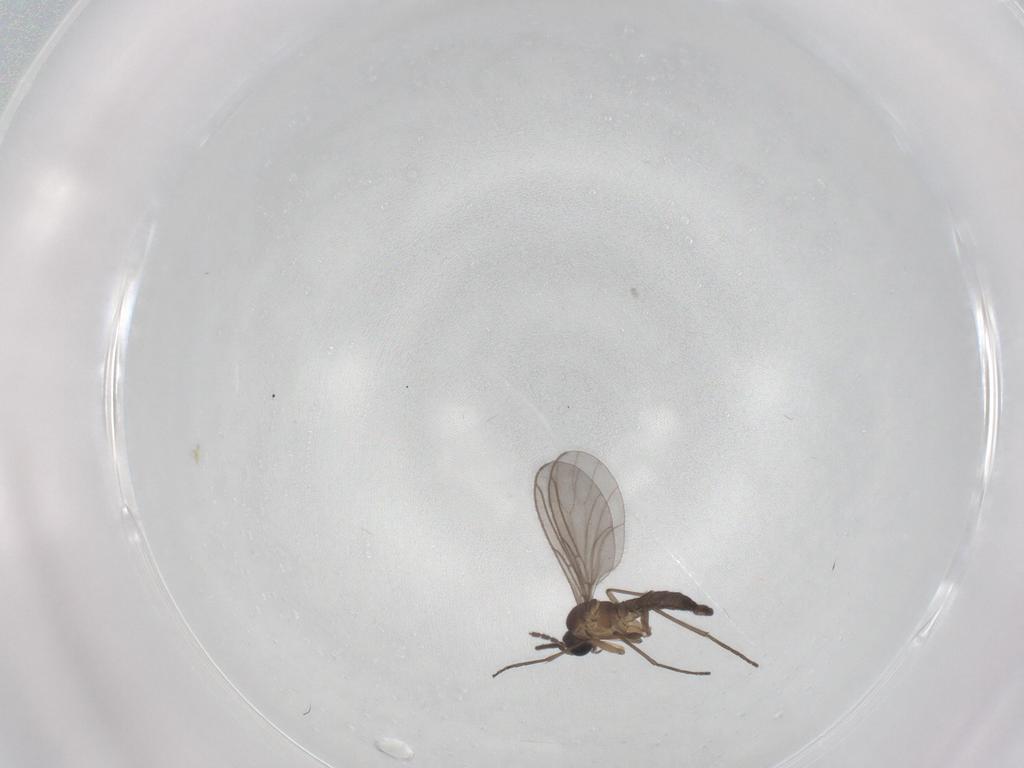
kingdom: Animalia
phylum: Arthropoda
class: Insecta
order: Diptera
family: Sciaridae
